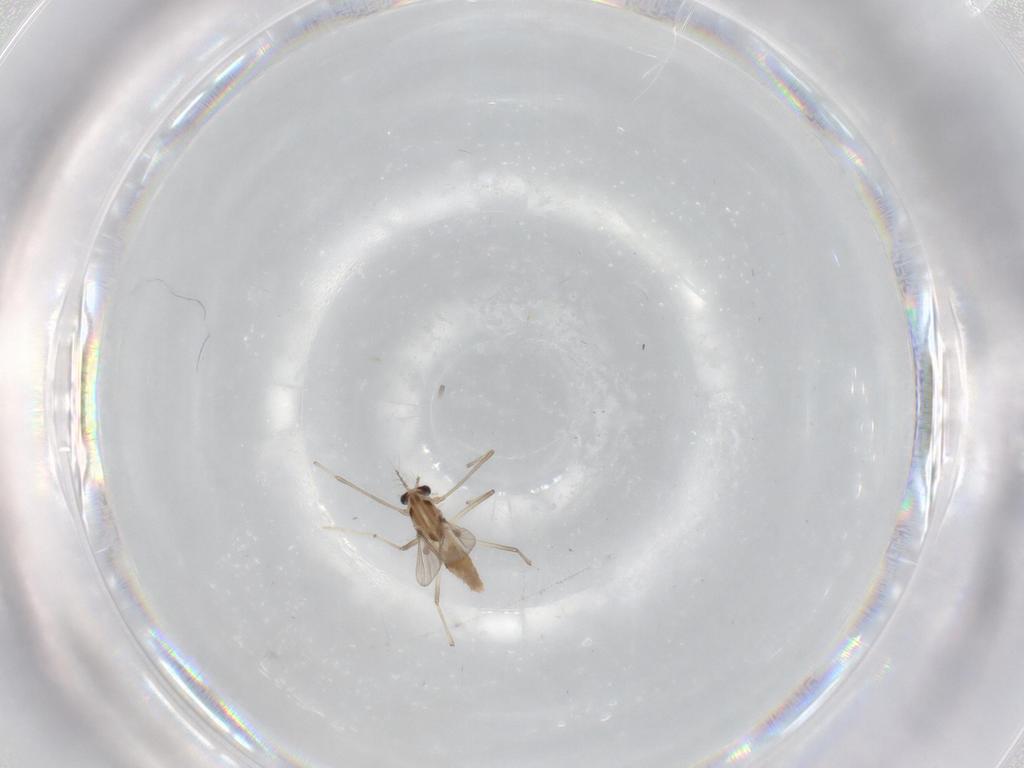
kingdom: Animalia
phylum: Arthropoda
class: Insecta
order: Diptera
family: Chironomidae
